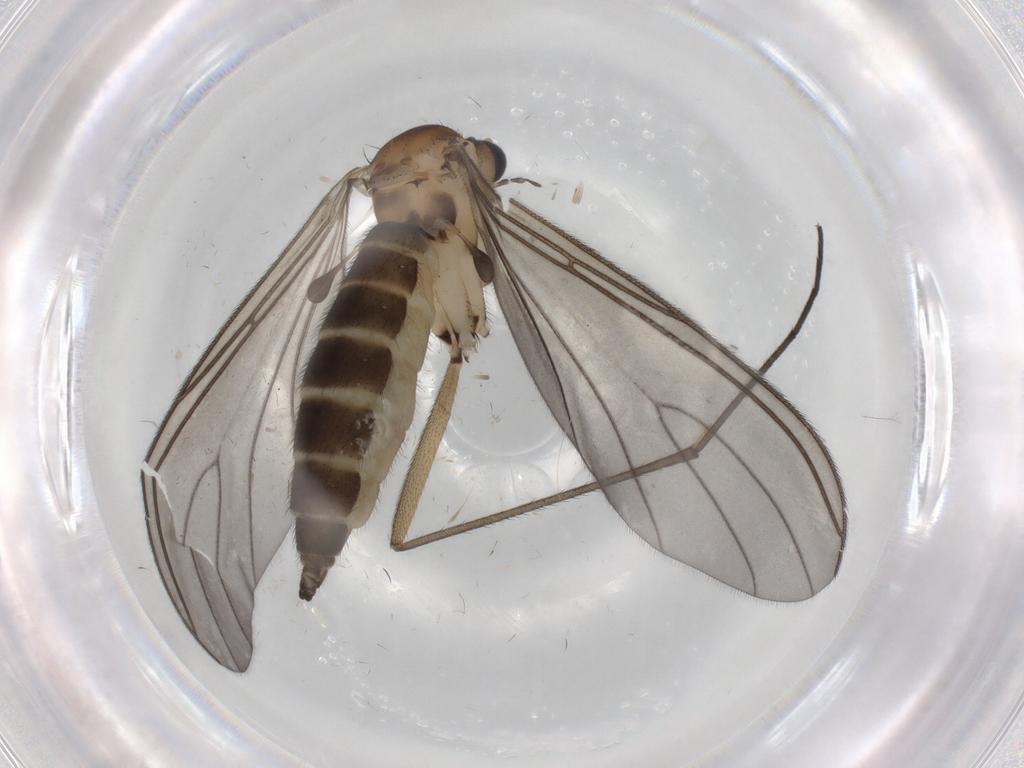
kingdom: Animalia
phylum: Arthropoda
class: Insecta
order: Diptera
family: Sciaridae
